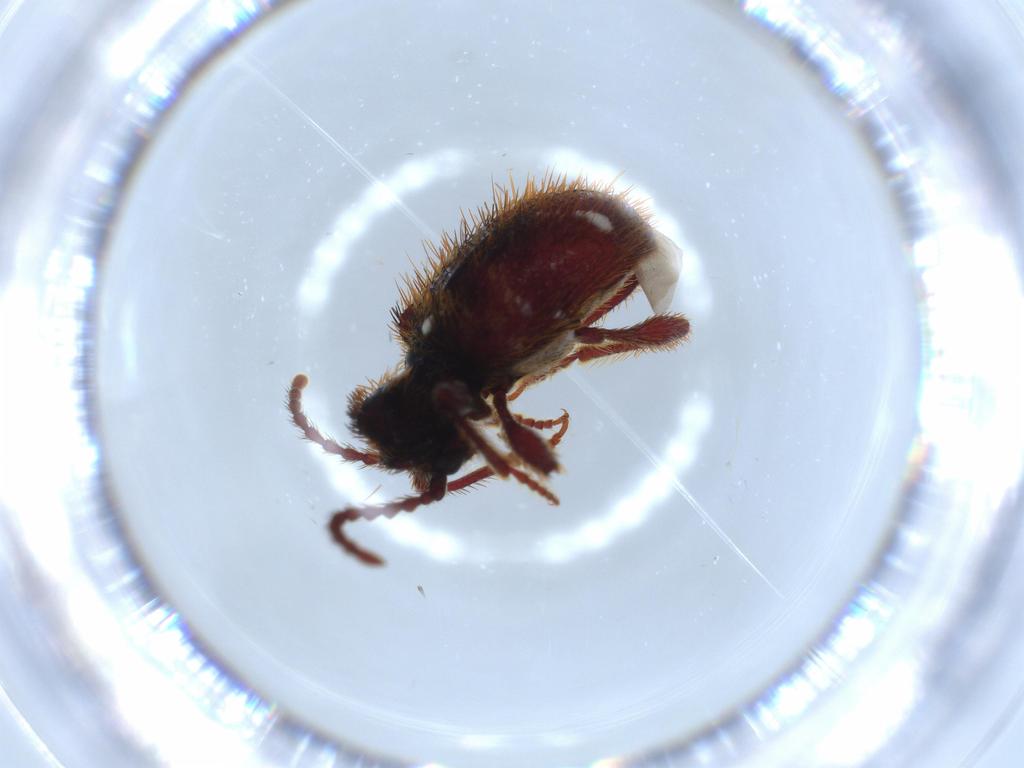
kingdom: Animalia
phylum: Arthropoda
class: Insecta
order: Coleoptera
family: Ptinidae
